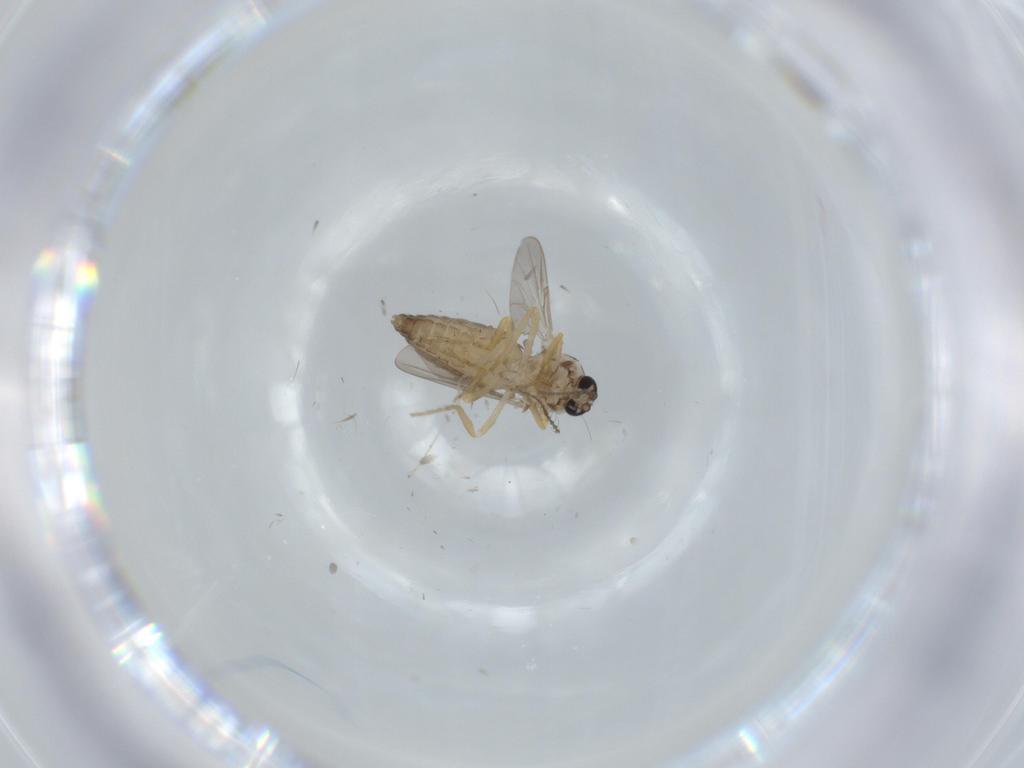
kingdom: Animalia
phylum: Arthropoda
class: Insecta
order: Diptera
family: Ceratopogonidae
